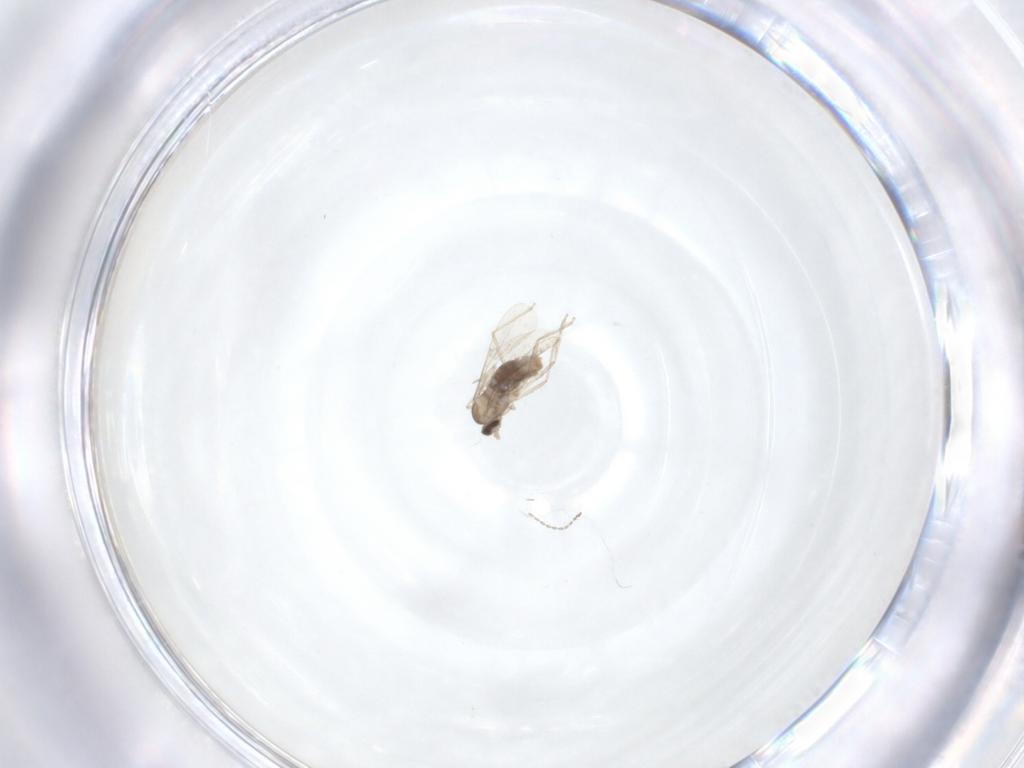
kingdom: Animalia
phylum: Arthropoda
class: Insecta
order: Diptera
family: Cecidomyiidae
